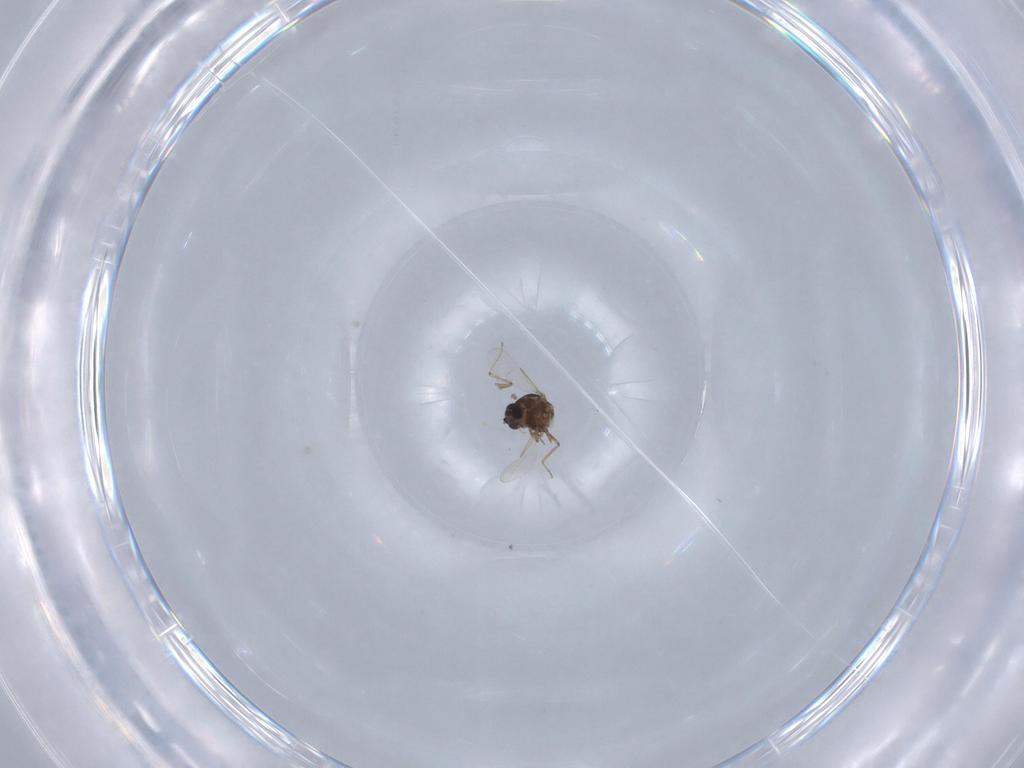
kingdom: Animalia
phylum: Arthropoda
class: Insecta
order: Diptera
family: Ceratopogonidae
